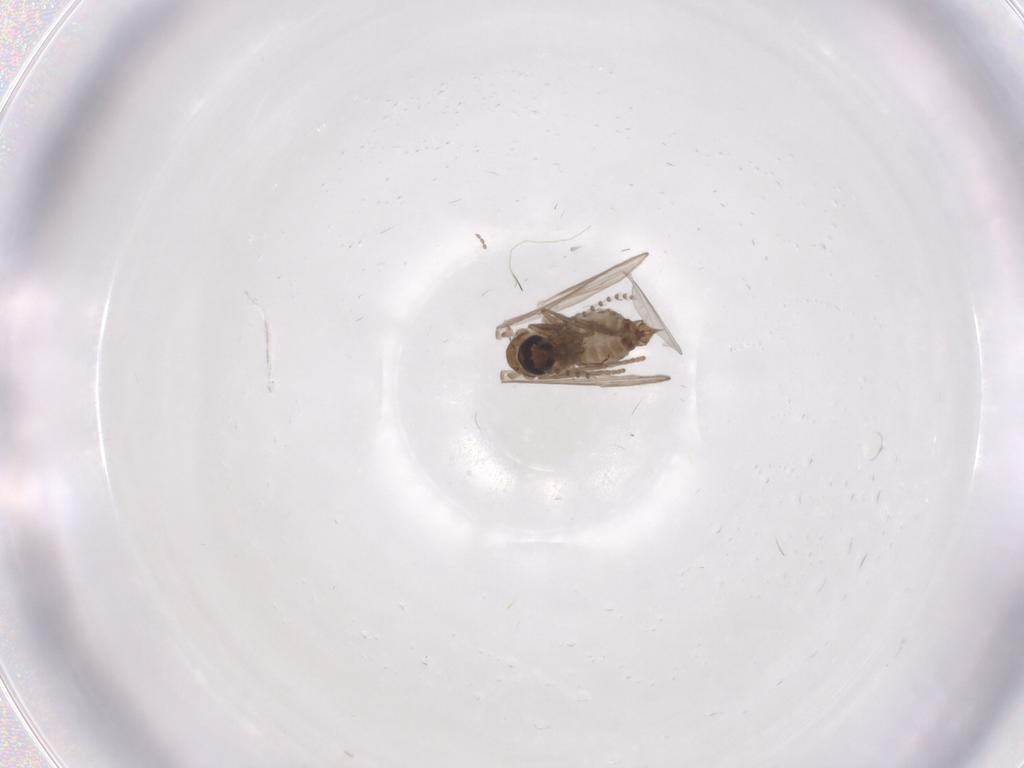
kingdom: Animalia
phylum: Arthropoda
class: Insecta
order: Diptera
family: Psychodidae
